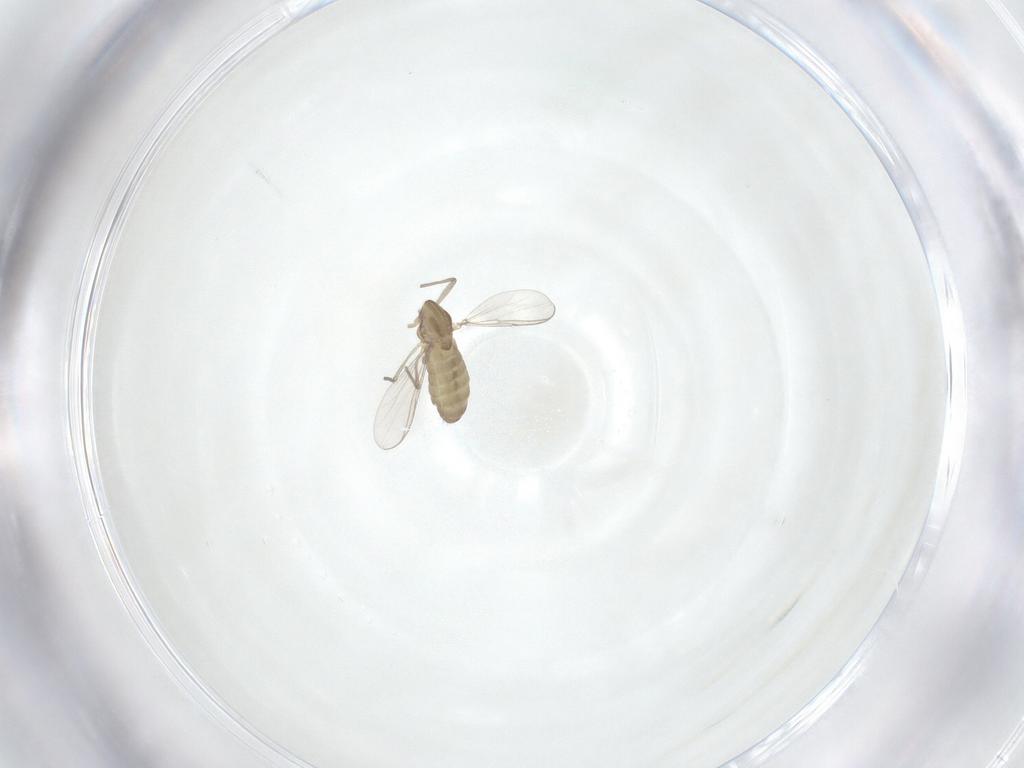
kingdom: Animalia
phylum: Arthropoda
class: Insecta
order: Diptera
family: Chironomidae
